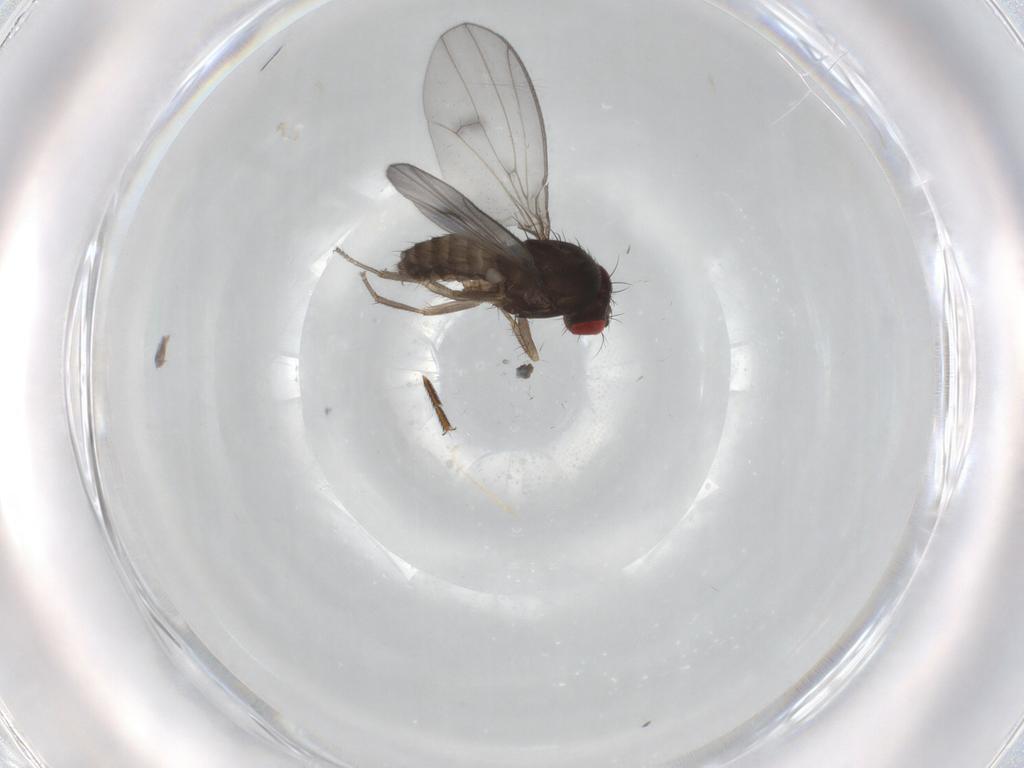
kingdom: Animalia
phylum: Arthropoda
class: Insecta
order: Diptera
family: Drosophilidae
